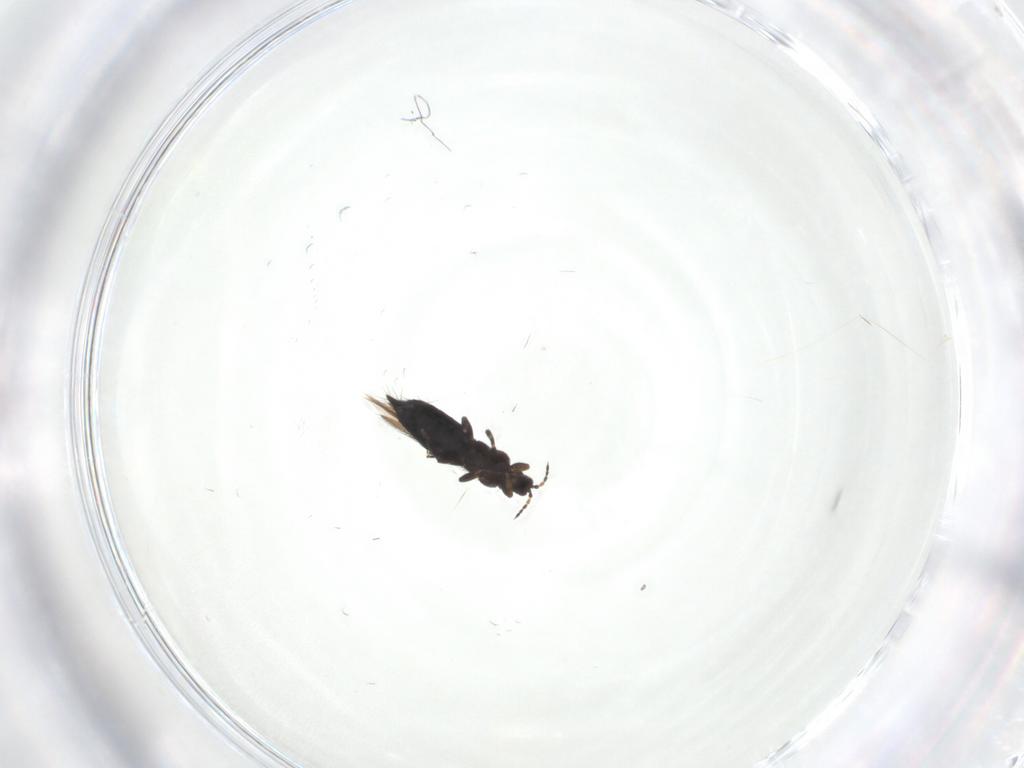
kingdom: Animalia
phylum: Arthropoda
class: Insecta
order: Thysanoptera
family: Thripidae
